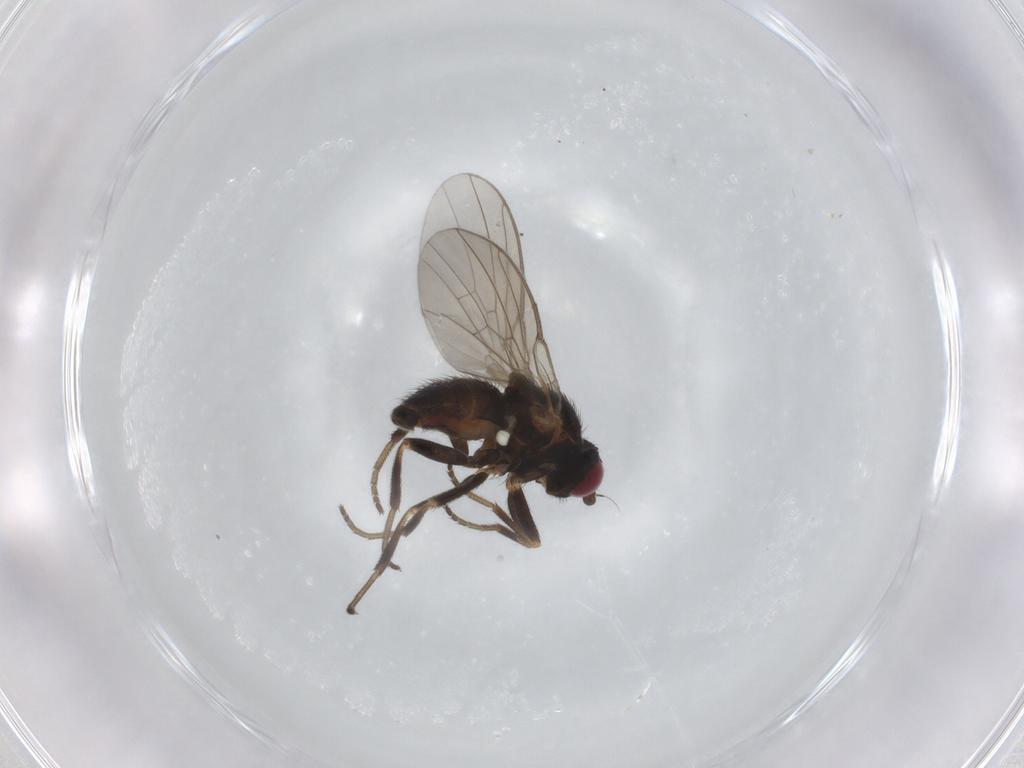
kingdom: Animalia
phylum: Arthropoda
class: Insecta
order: Diptera
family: Agromyzidae
